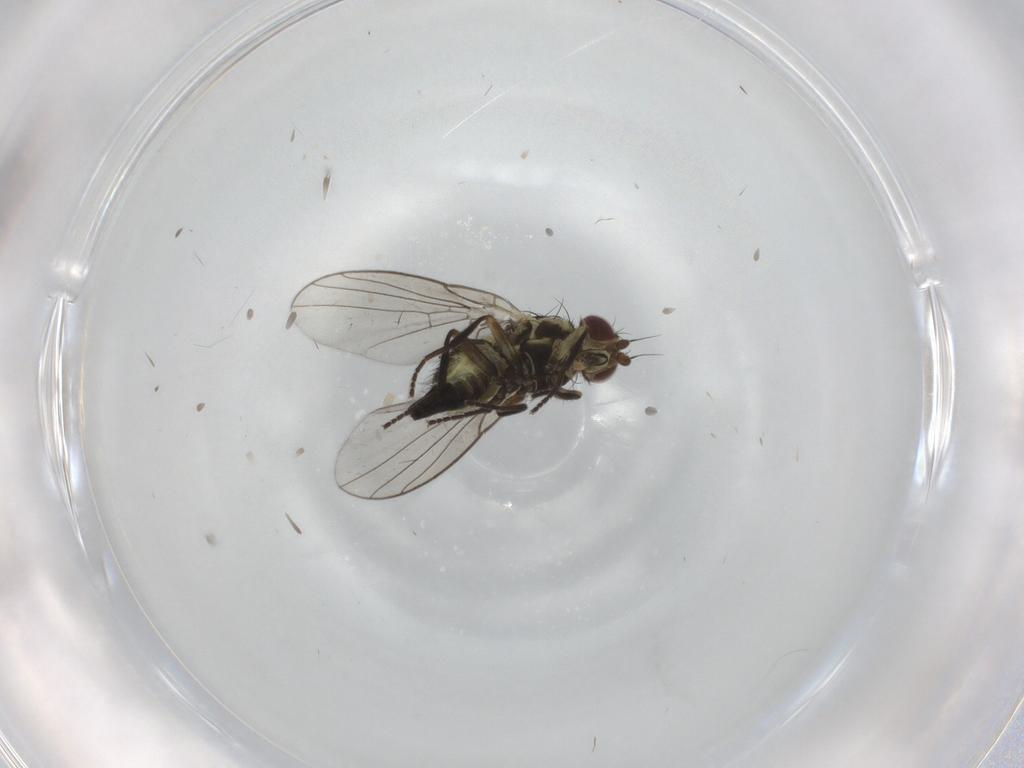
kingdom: Animalia
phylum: Arthropoda
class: Insecta
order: Diptera
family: Agromyzidae
